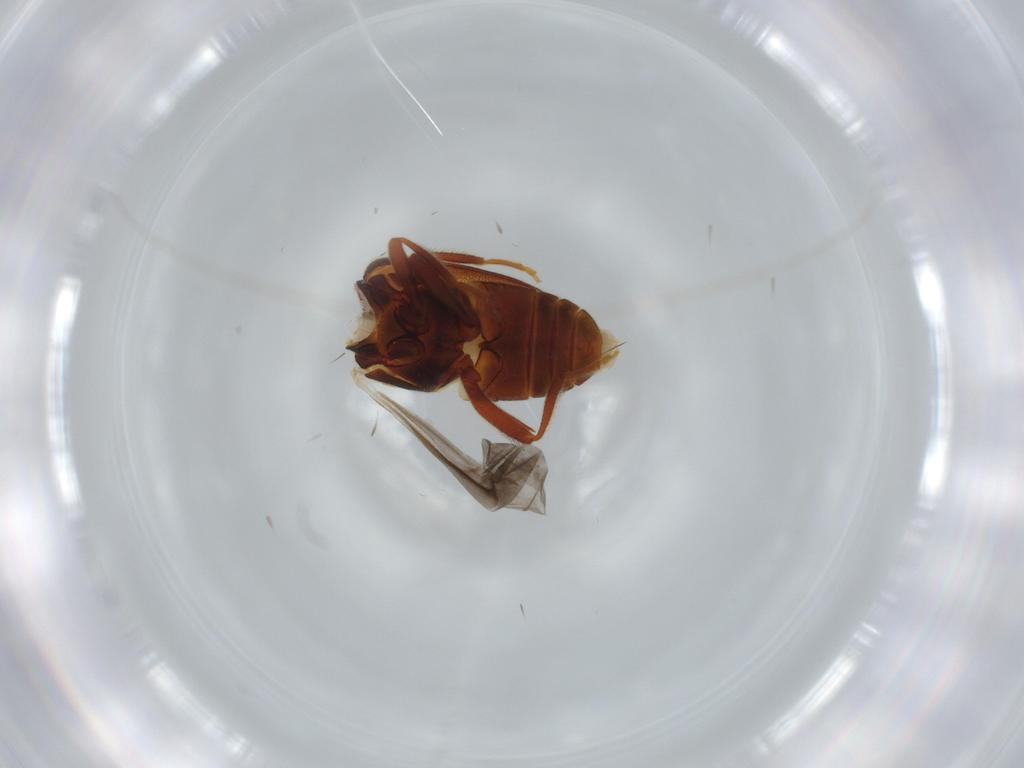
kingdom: Animalia
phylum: Arthropoda
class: Insecta
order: Coleoptera
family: Aderidae
